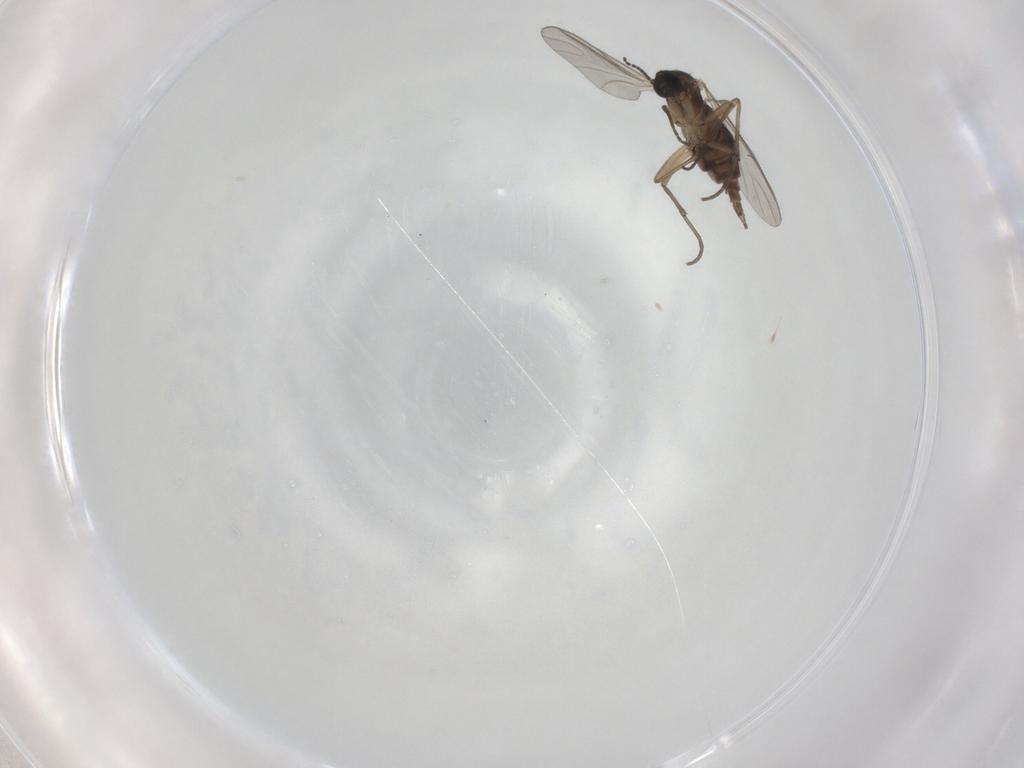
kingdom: Animalia
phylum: Arthropoda
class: Insecta
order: Diptera
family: Sciaridae
